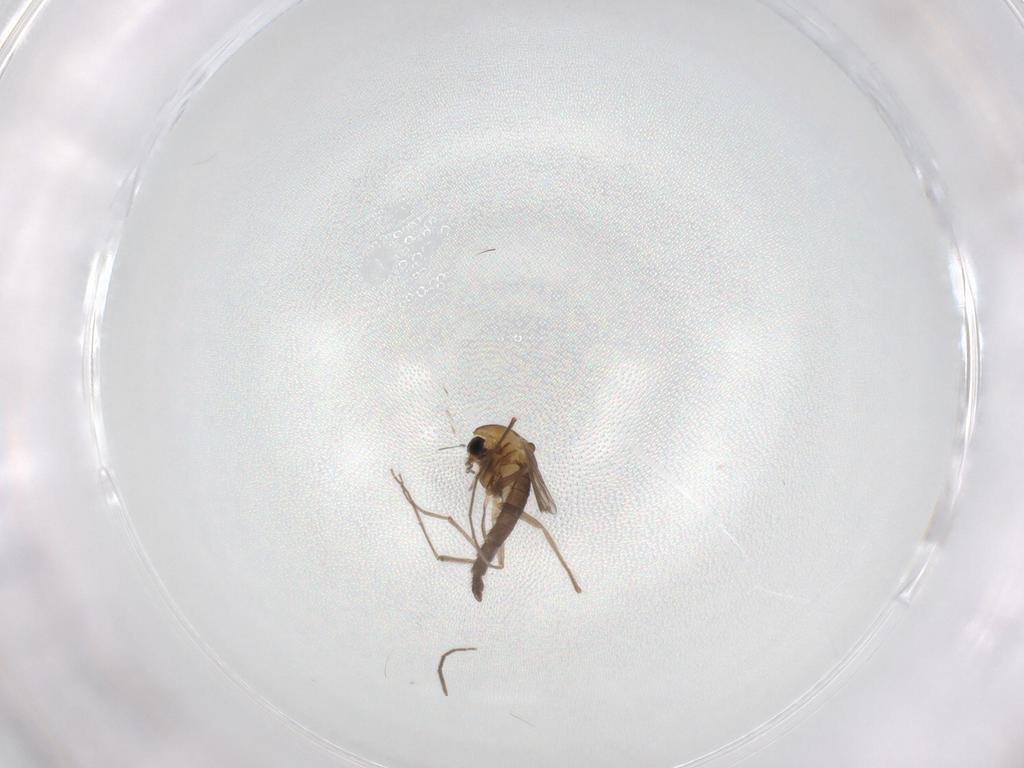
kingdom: Animalia
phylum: Arthropoda
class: Insecta
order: Diptera
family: Chironomidae
